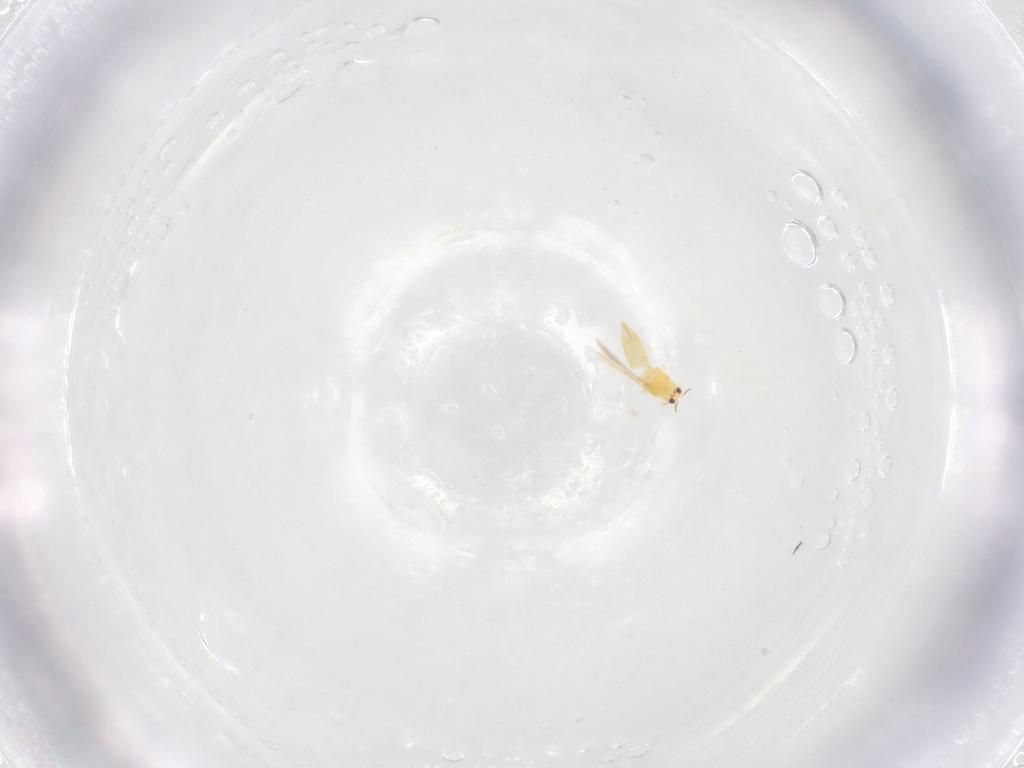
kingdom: Animalia
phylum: Arthropoda
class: Insecta
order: Thysanoptera
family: Thripidae
